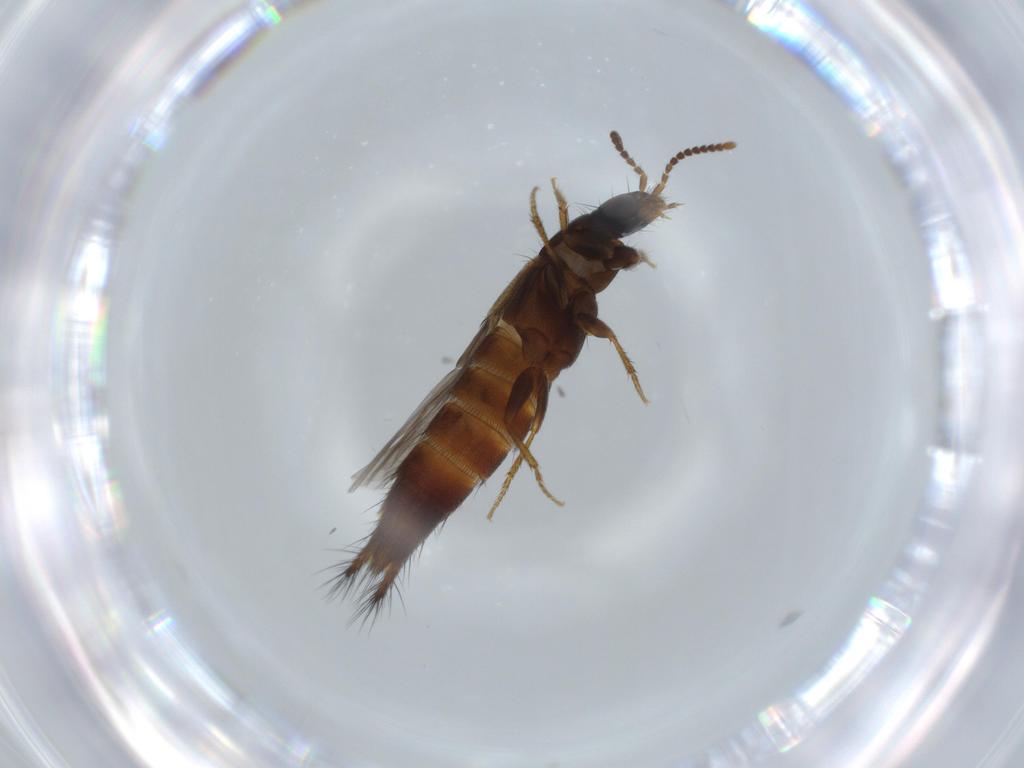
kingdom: Animalia
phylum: Arthropoda
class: Insecta
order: Coleoptera
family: Staphylinidae
